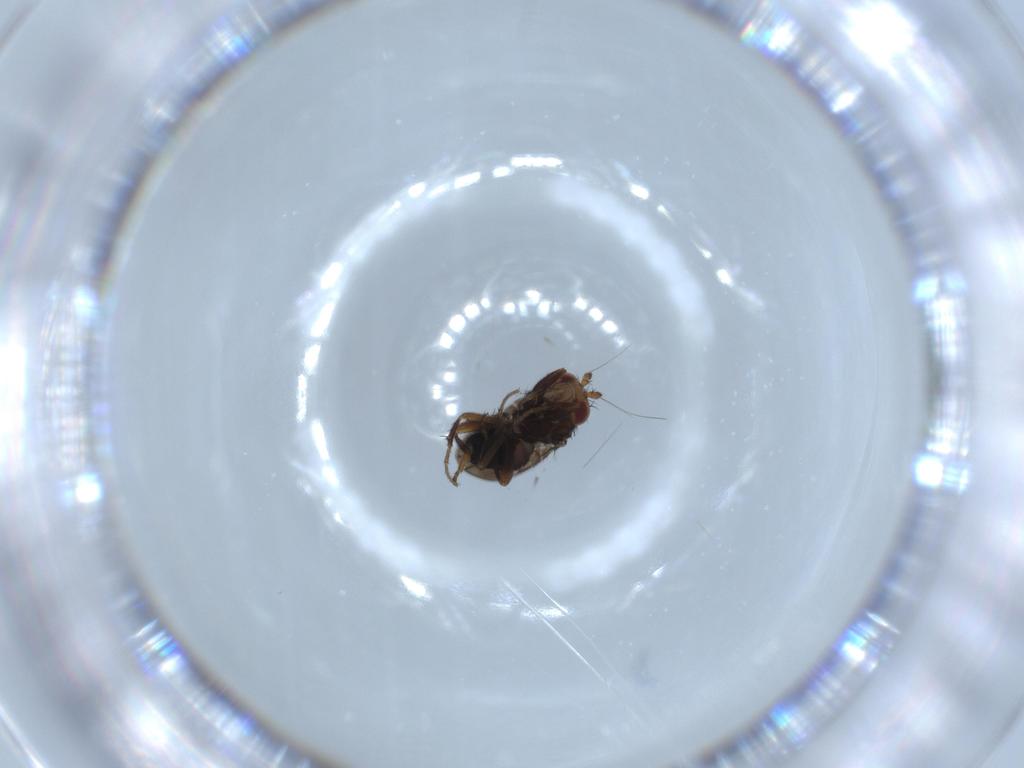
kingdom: Animalia
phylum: Arthropoda
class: Insecta
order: Diptera
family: Sphaeroceridae
